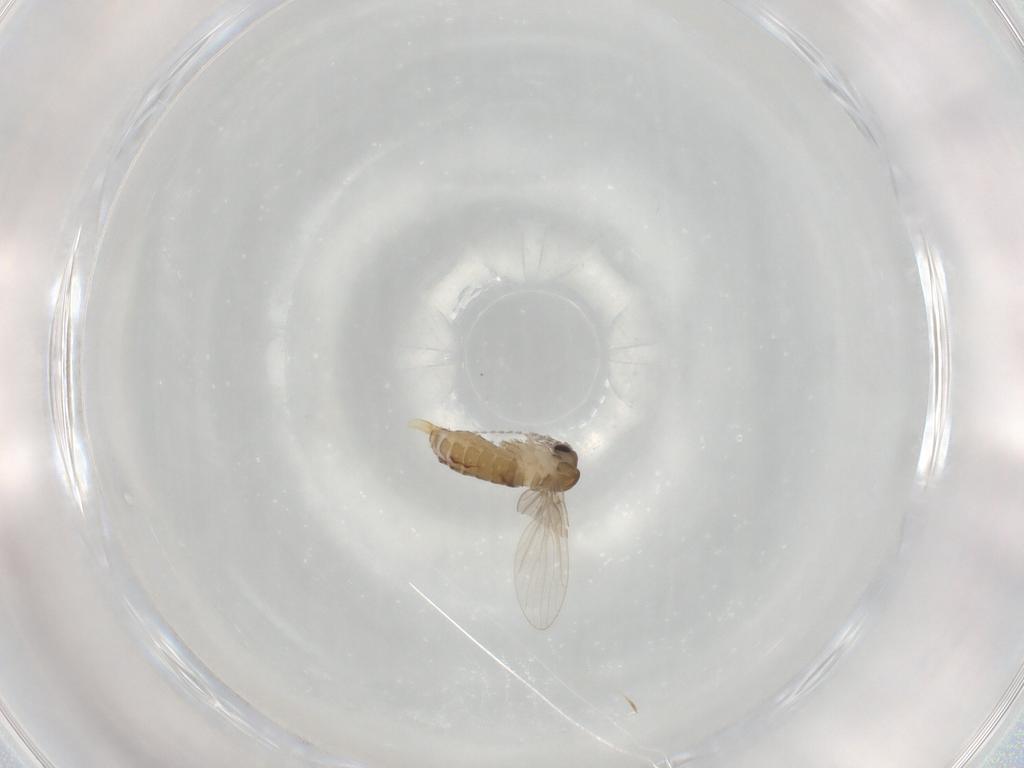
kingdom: Animalia
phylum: Arthropoda
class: Insecta
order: Diptera
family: Psychodidae
